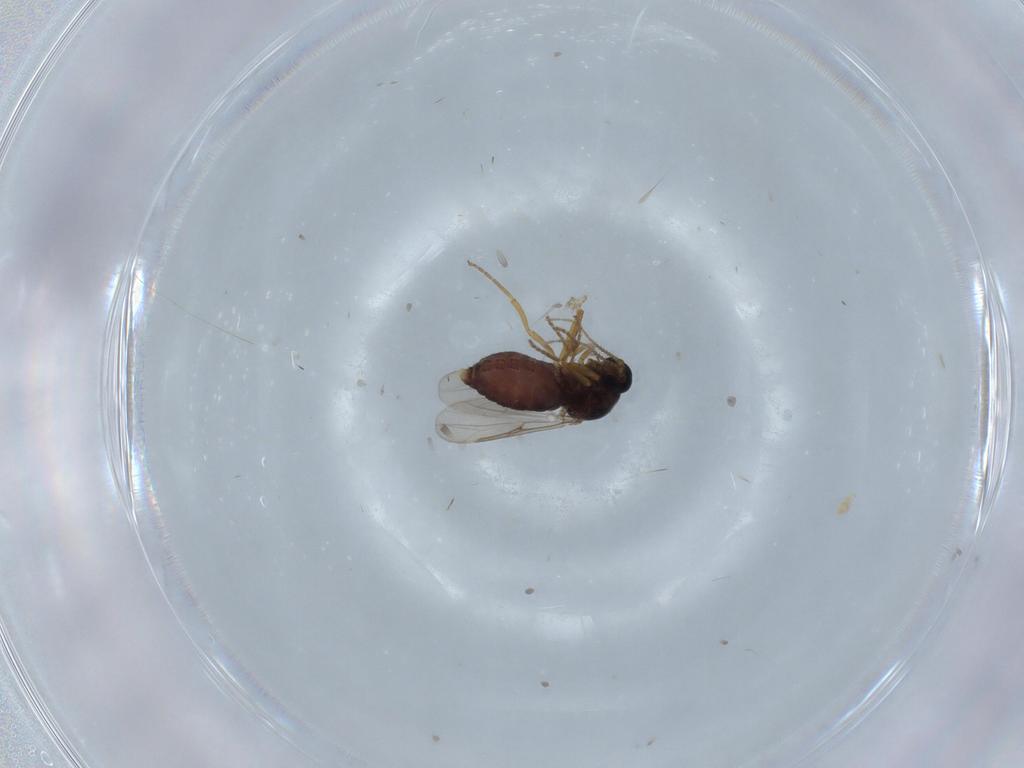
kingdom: Animalia
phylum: Arthropoda
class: Insecta
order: Diptera
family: Ceratopogonidae
